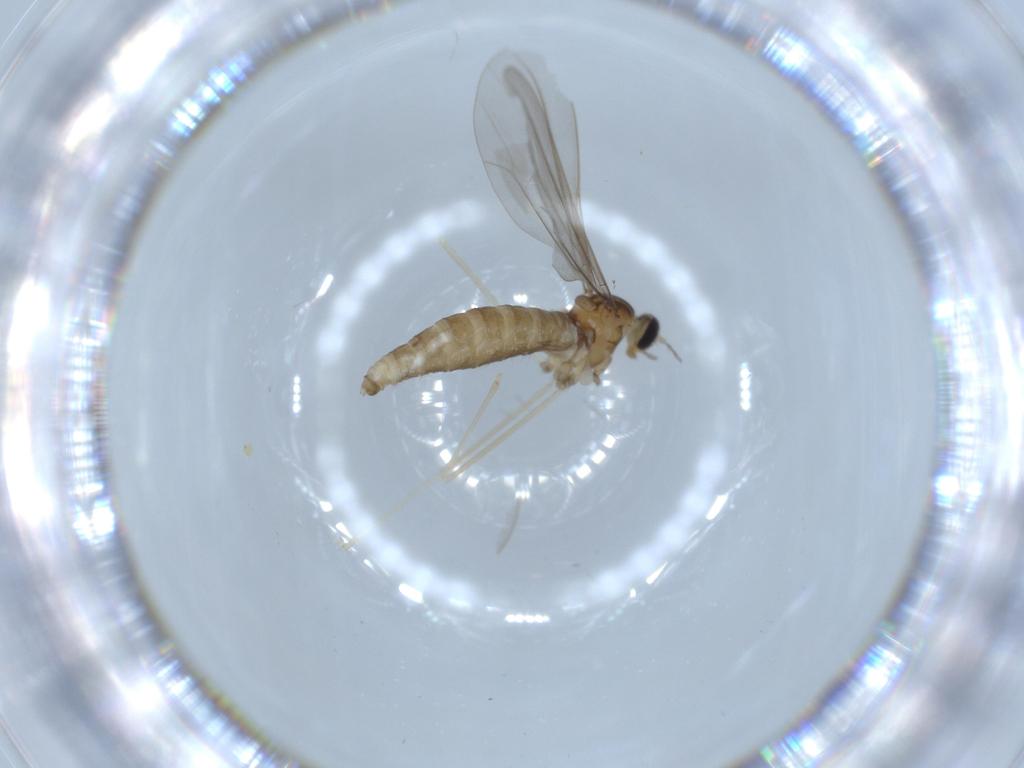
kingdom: Animalia
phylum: Arthropoda
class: Insecta
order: Diptera
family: Cecidomyiidae
